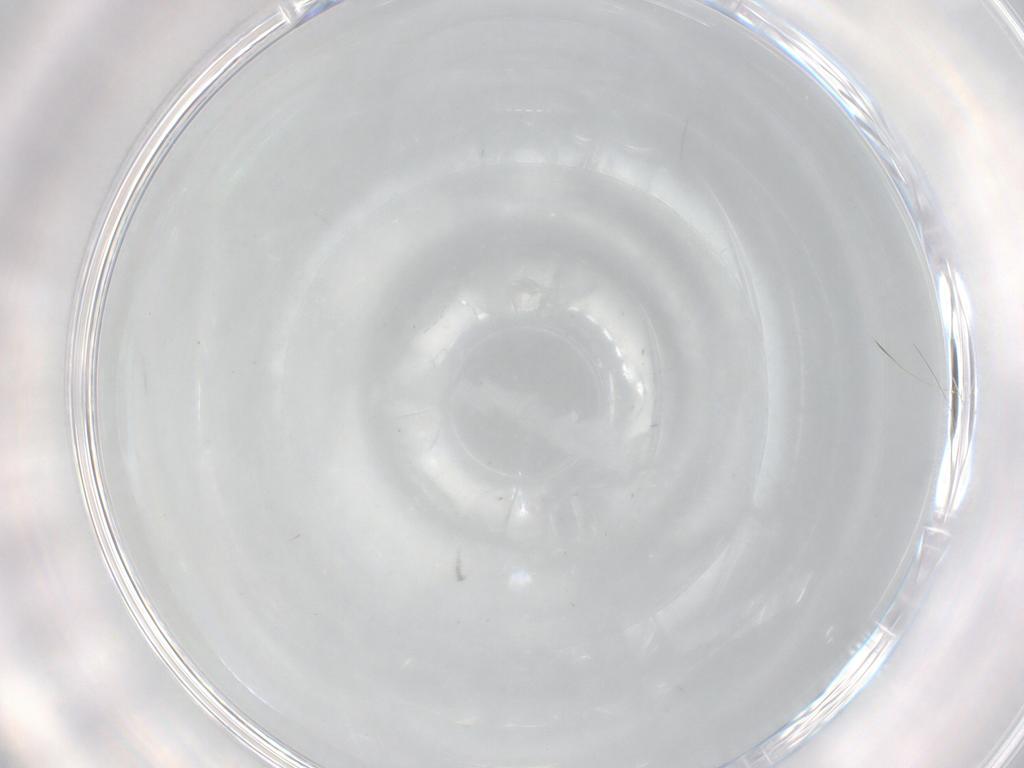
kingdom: Animalia
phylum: Arthropoda
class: Insecta
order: Diptera
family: Cecidomyiidae
